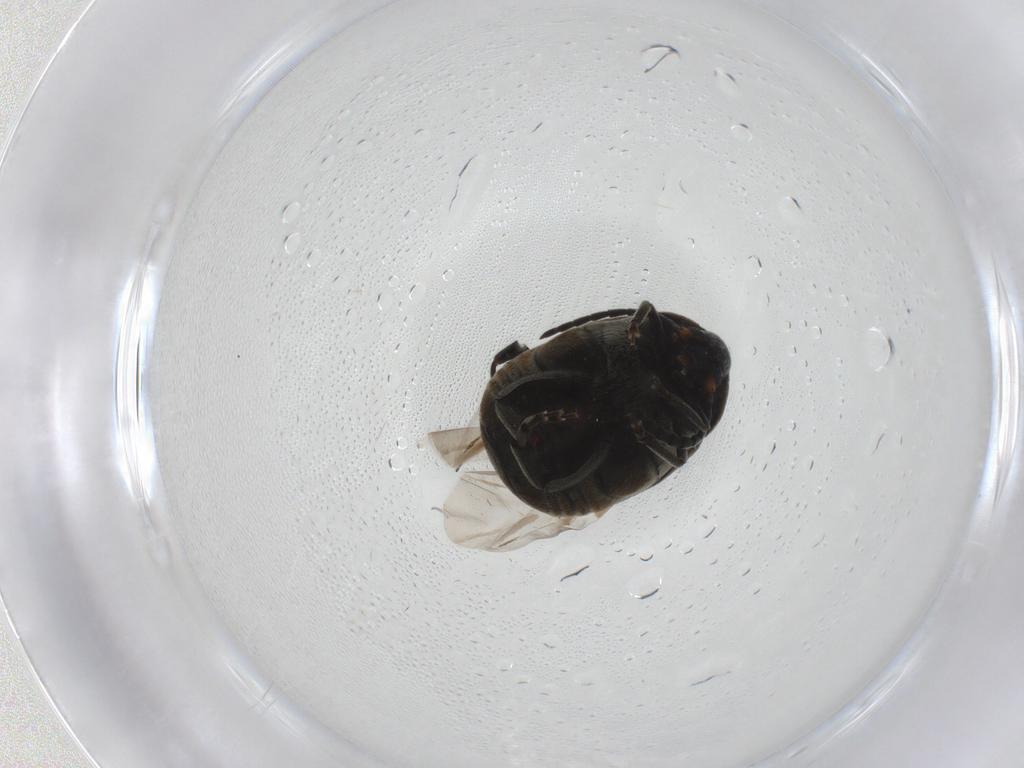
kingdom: Animalia
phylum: Arthropoda
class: Insecta
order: Coleoptera
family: Chrysomelidae
